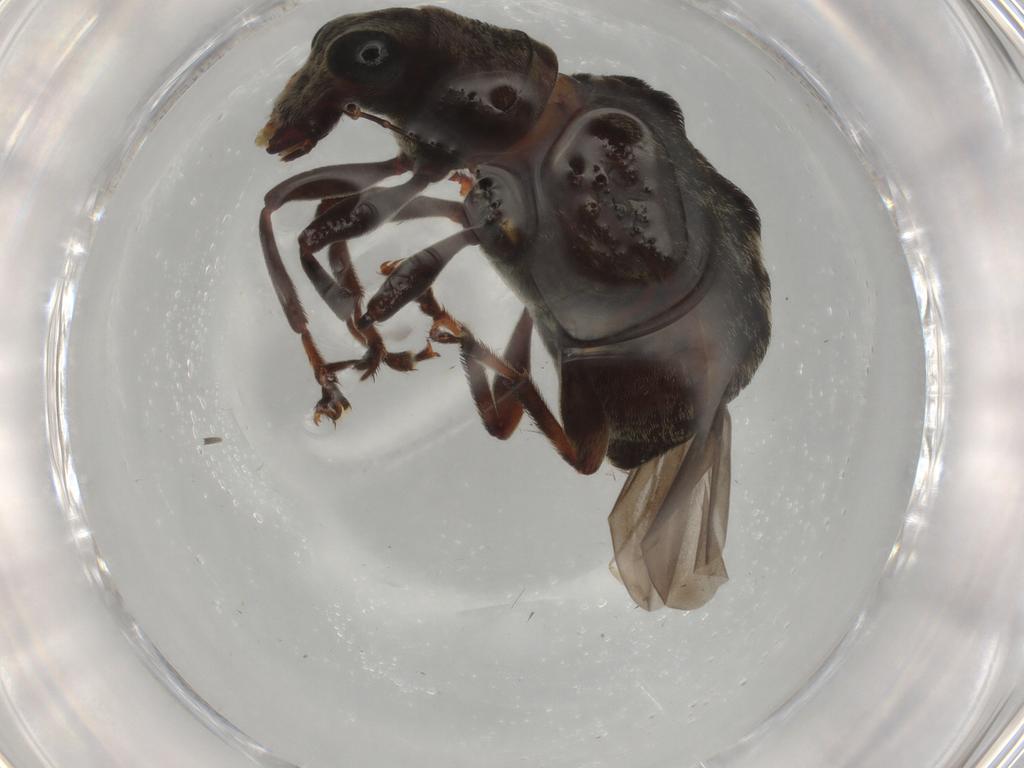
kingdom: Animalia
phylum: Arthropoda
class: Insecta
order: Coleoptera
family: Anthribidae
